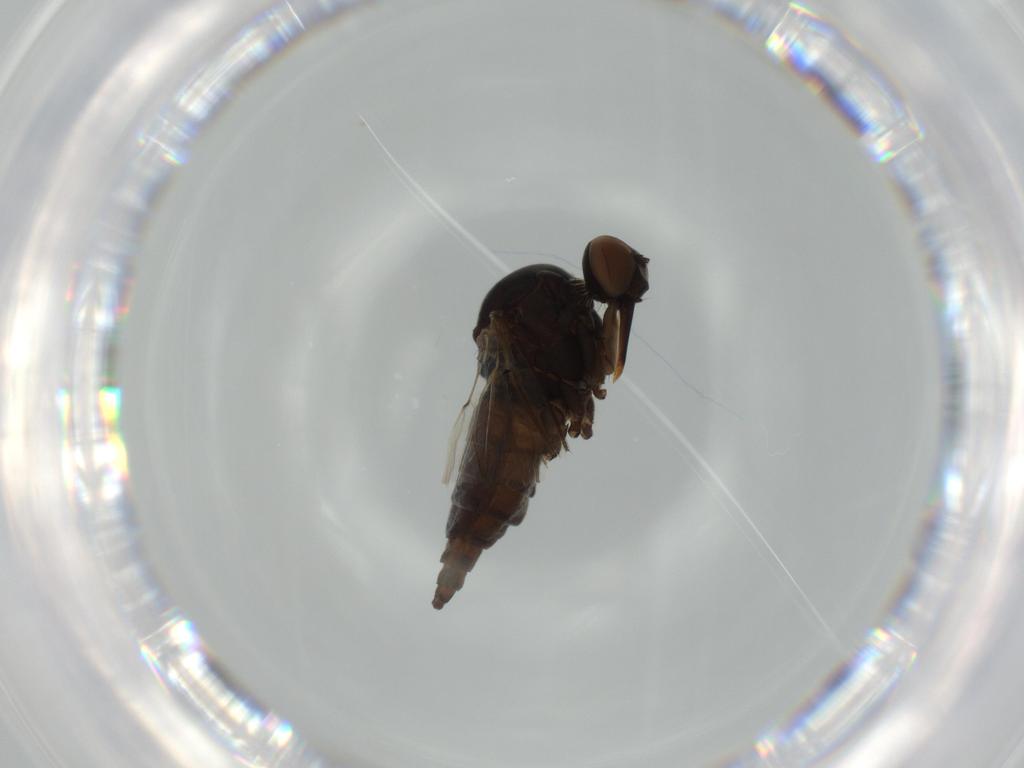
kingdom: Animalia
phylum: Arthropoda
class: Insecta
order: Diptera
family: Empididae
